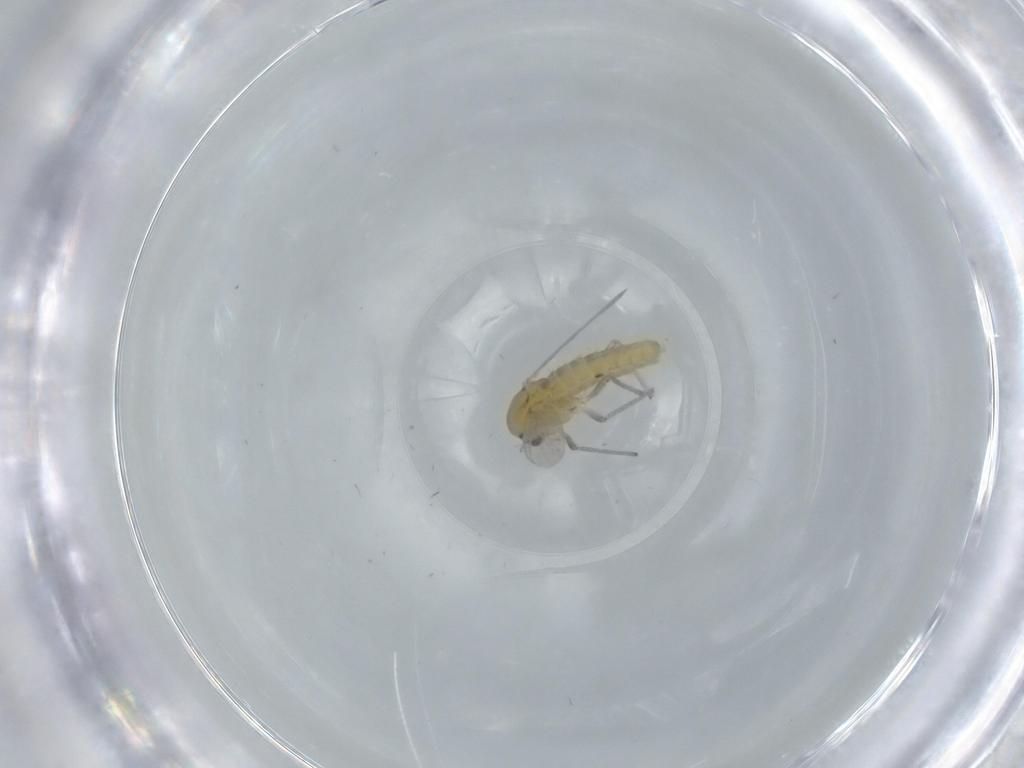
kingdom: Animalia
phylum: Arthropoda
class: Insecta
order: Diptera
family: Chironomidae
